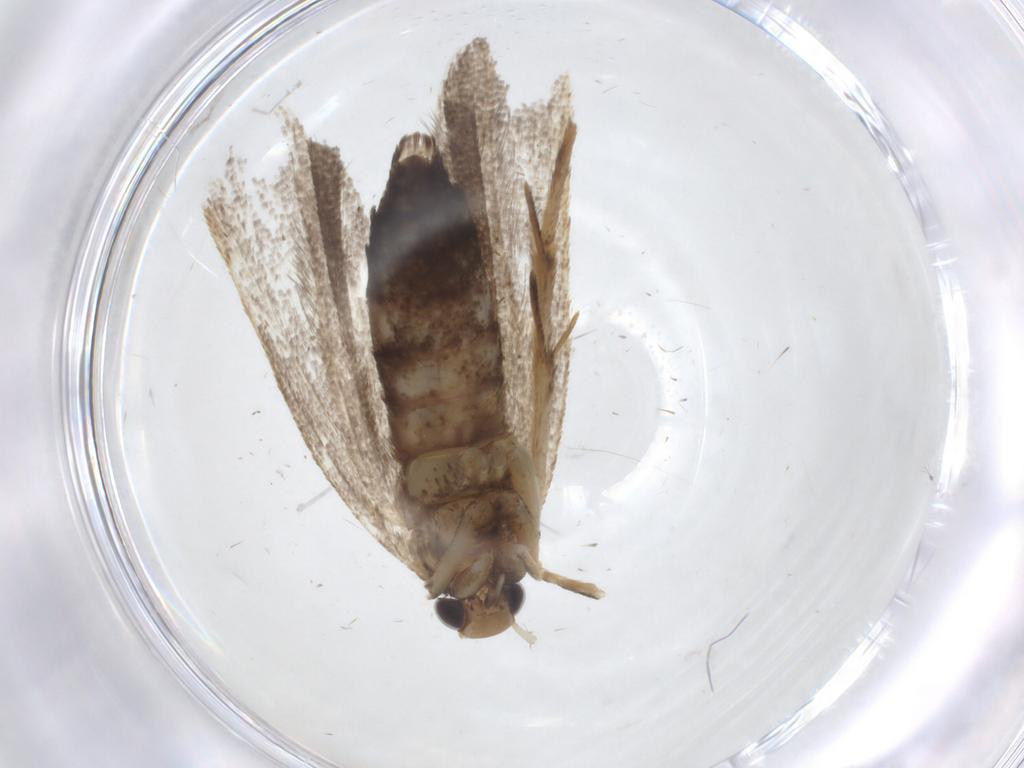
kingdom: Animalia
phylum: Arthropoda
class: Insecta
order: Lepidoptera
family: Lecithoceridae
